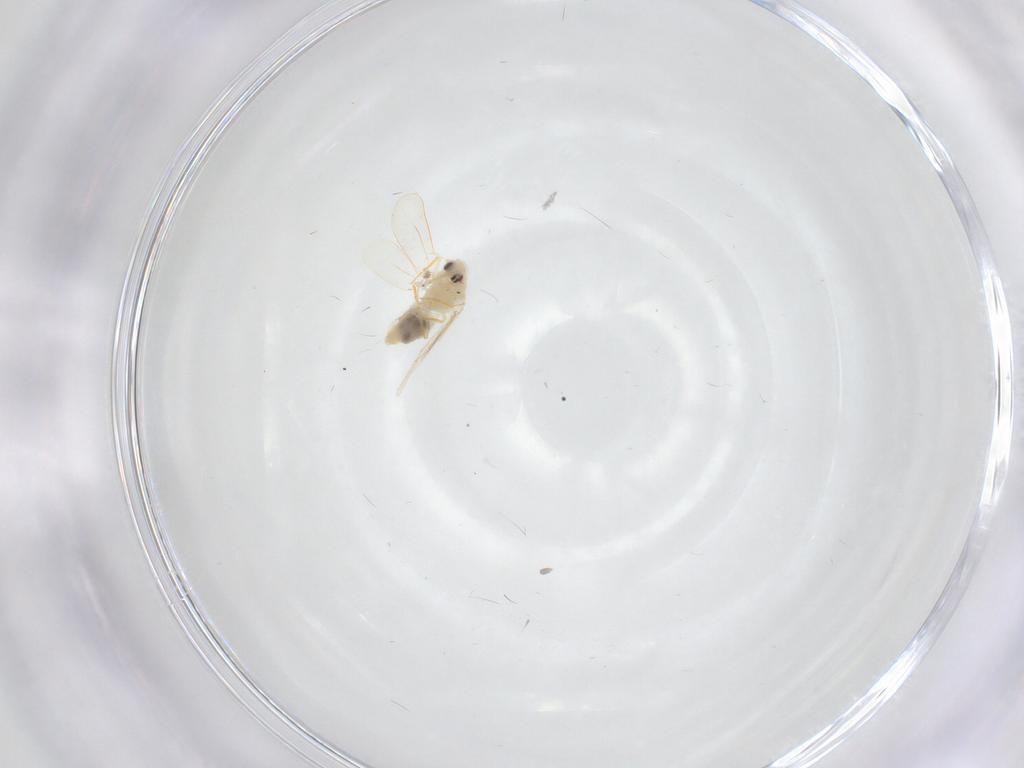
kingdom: Animalia
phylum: Arthropoda
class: Insecta
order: Hemiptera
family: Aleyrodidae
